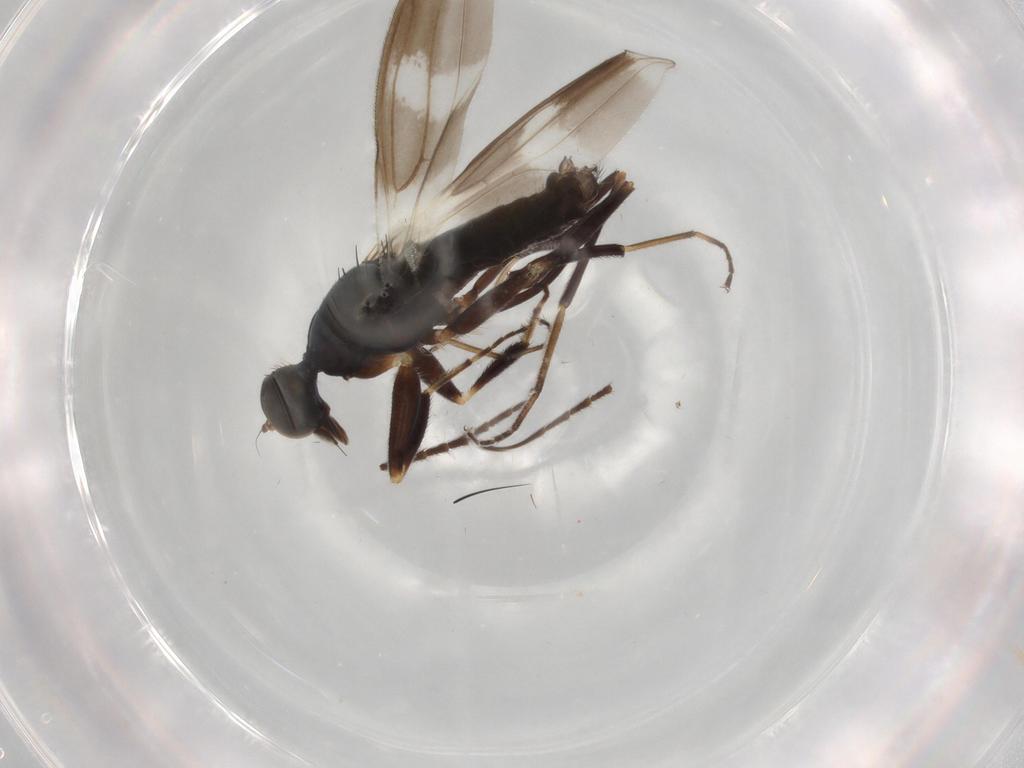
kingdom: Animalia
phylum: Arthropoda
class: Insecta
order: Diptera
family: Hybotidae
